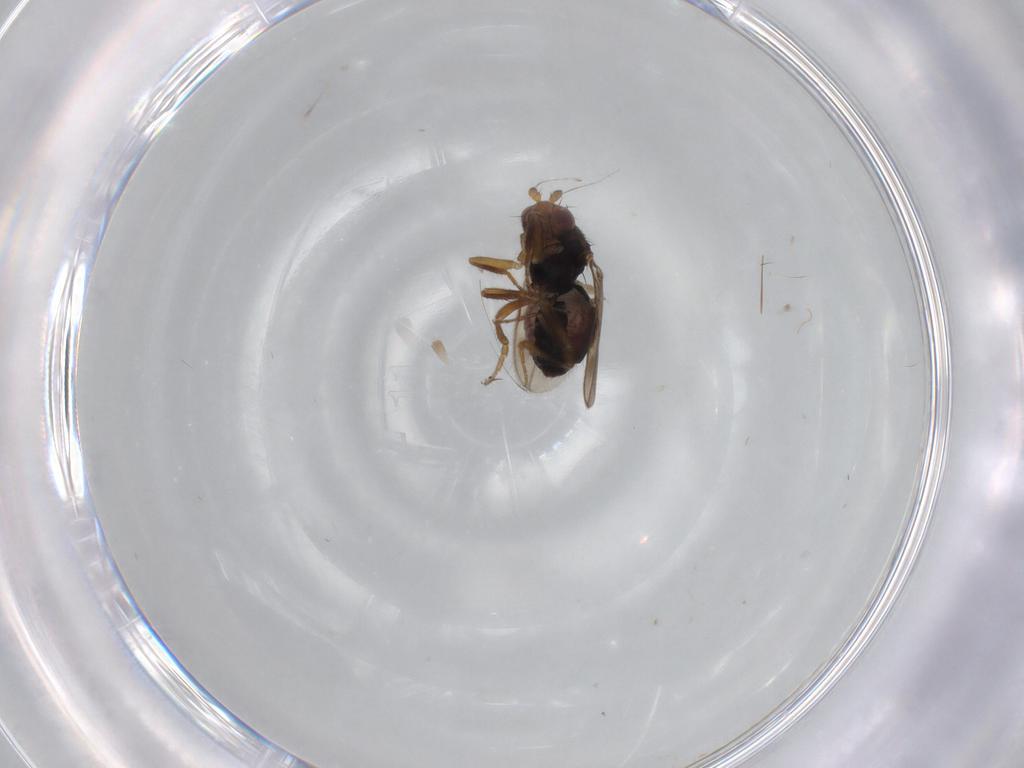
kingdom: Animalia
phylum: Arthropoda
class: Insecta
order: Diptera
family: Sphaeroceridae
